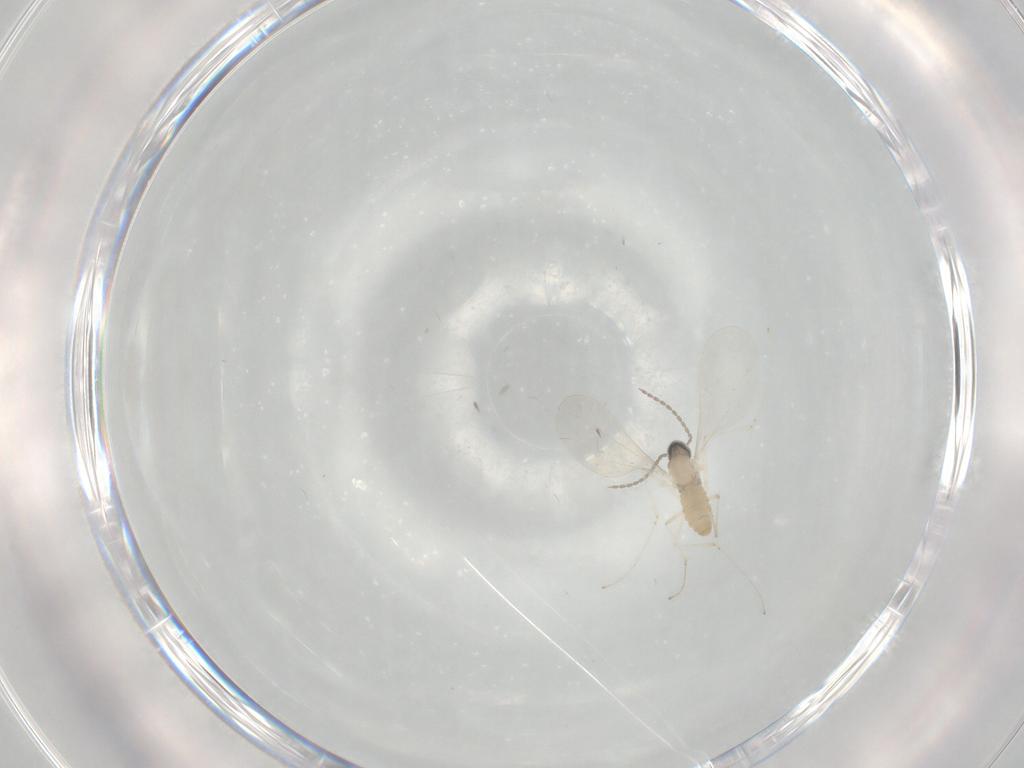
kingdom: Animalia
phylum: Arthropoda
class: Insecta
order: Diptera
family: Cecidomyiidae
